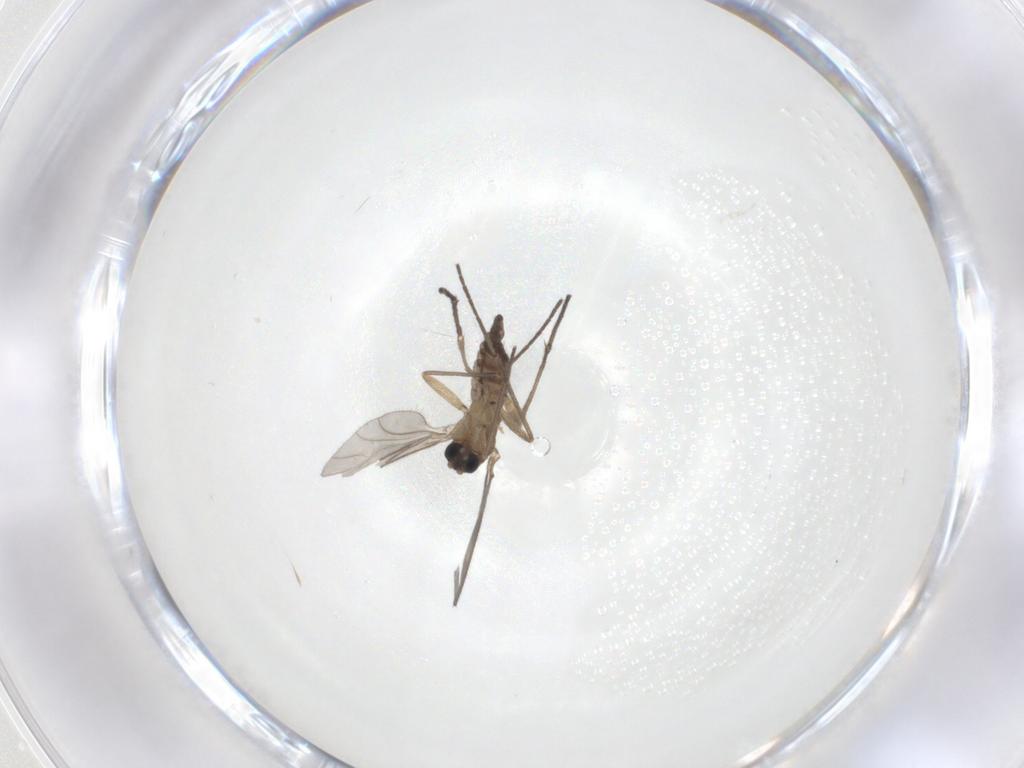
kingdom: Animalia
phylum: Arthropoda
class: Insecta
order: Diptera
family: Sciaridae
